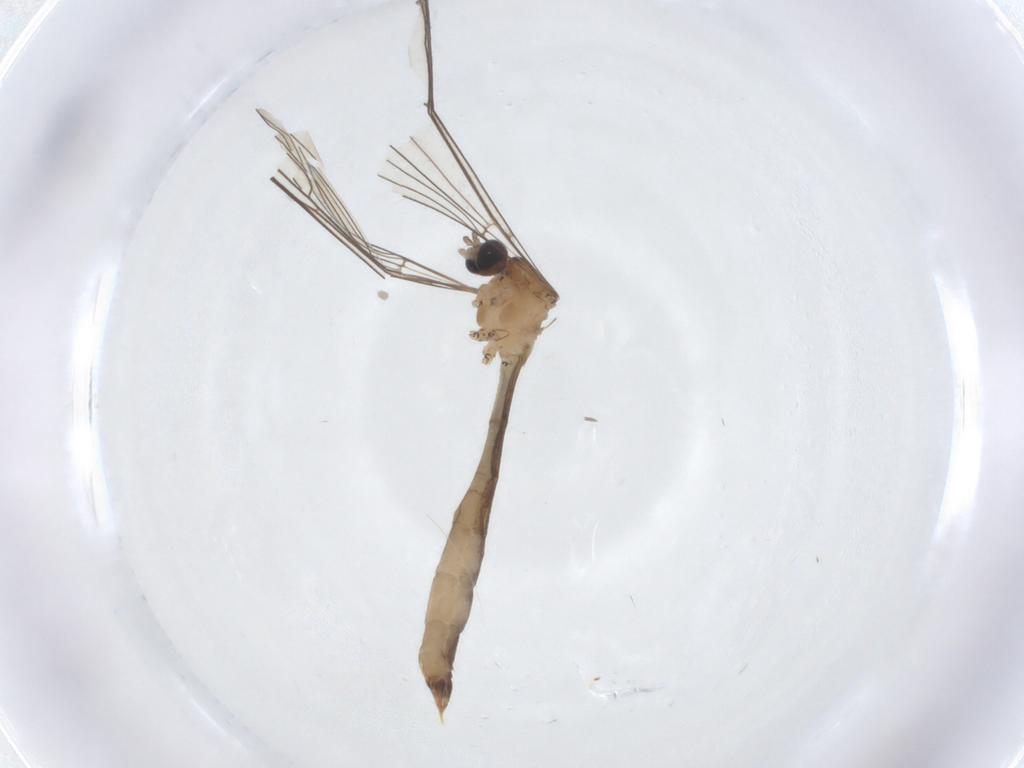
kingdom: Animalia
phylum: Arthropoda
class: Insecta
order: Diptera
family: Limoniidae
